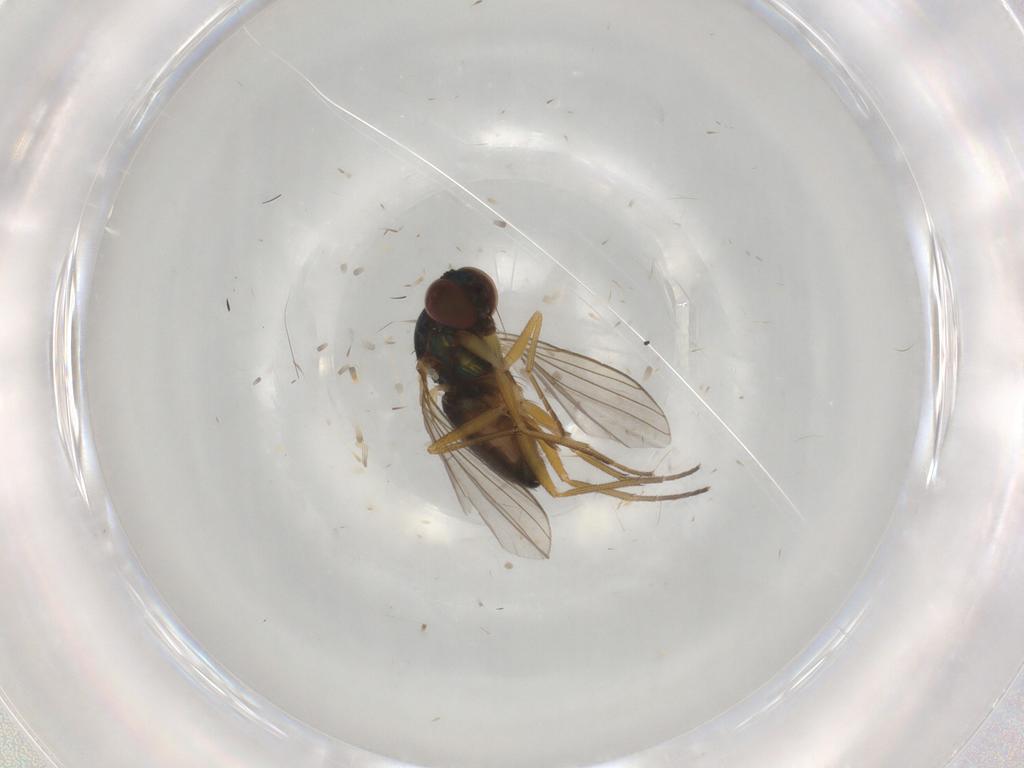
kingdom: Animalia
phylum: Arthropoda
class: Insecta
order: Diptera
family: Dolichopodidae
